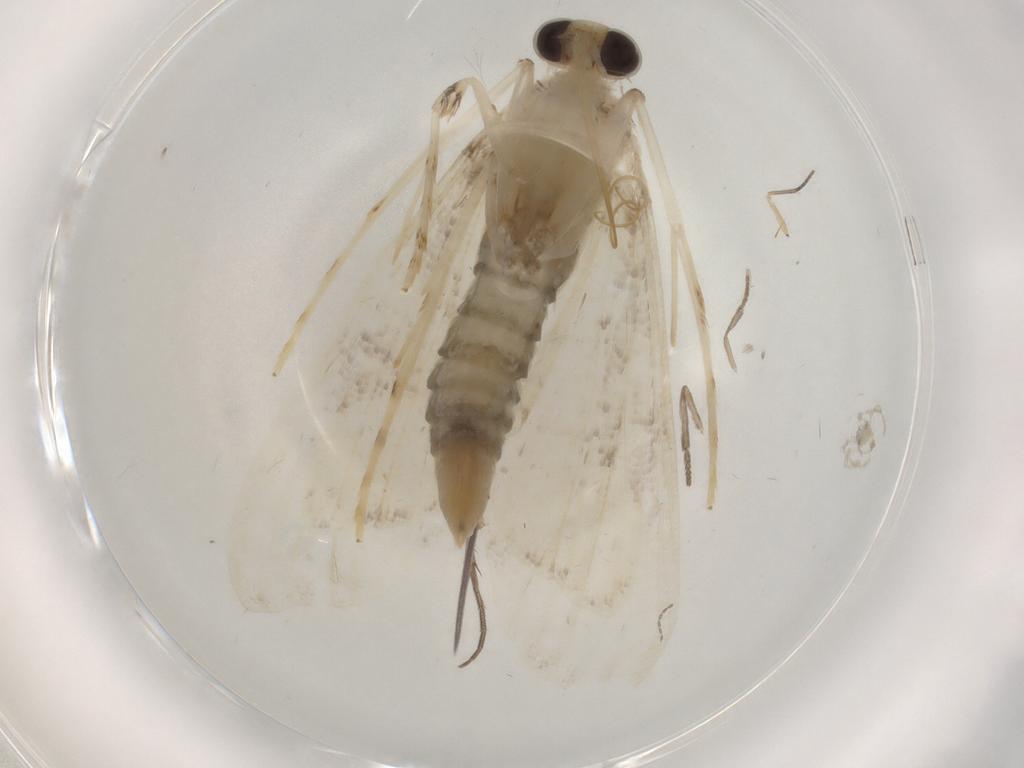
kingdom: Animalia
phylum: Arthropoda
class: Insecta
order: Lepidoptera
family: Crambidae
